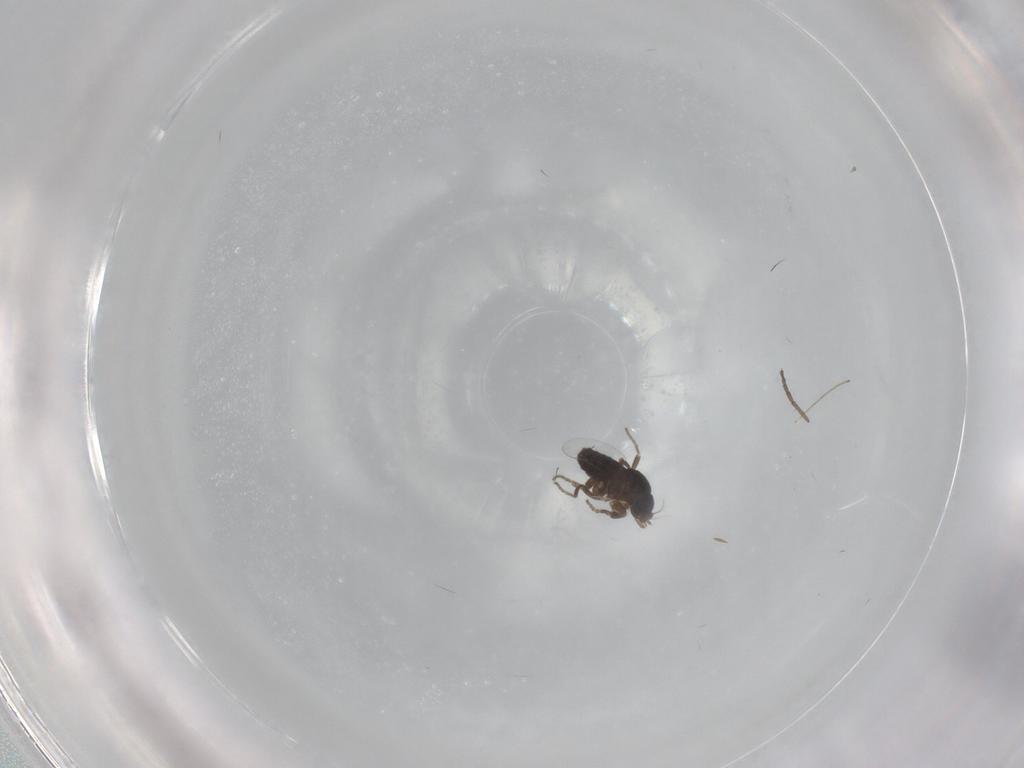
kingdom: Animalia
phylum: Arthropoda
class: Insecta
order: Diptera
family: Phoridae
